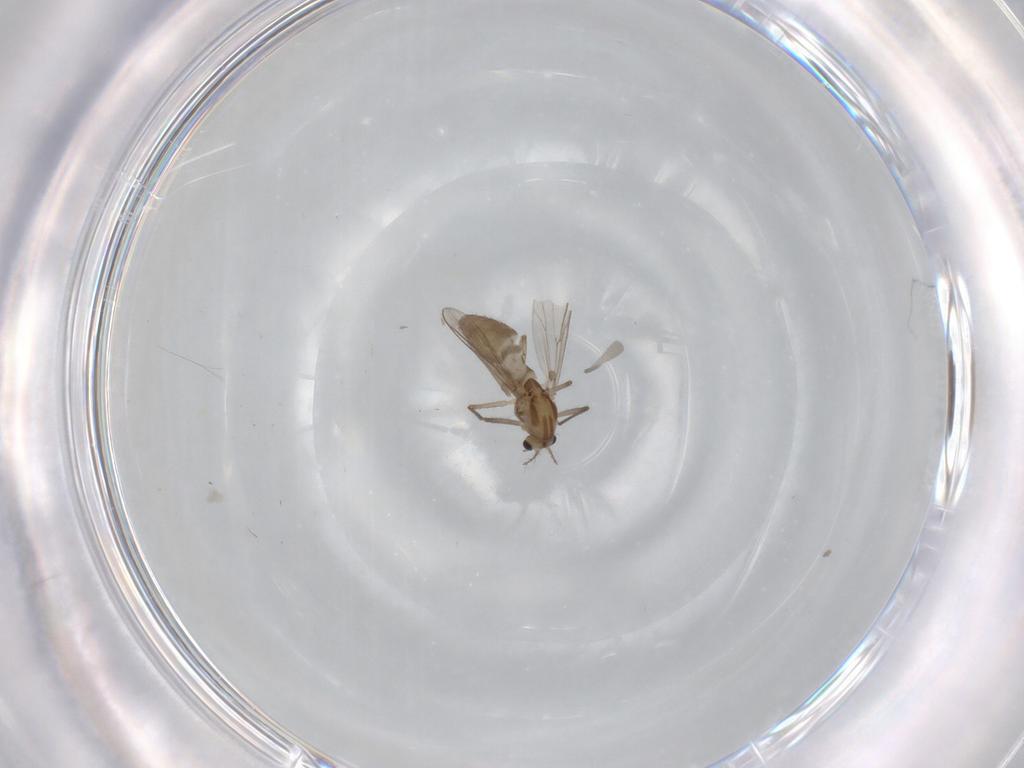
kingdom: Animalia
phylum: Arthropoda
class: Insecta
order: Diptera
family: Chironomidae
